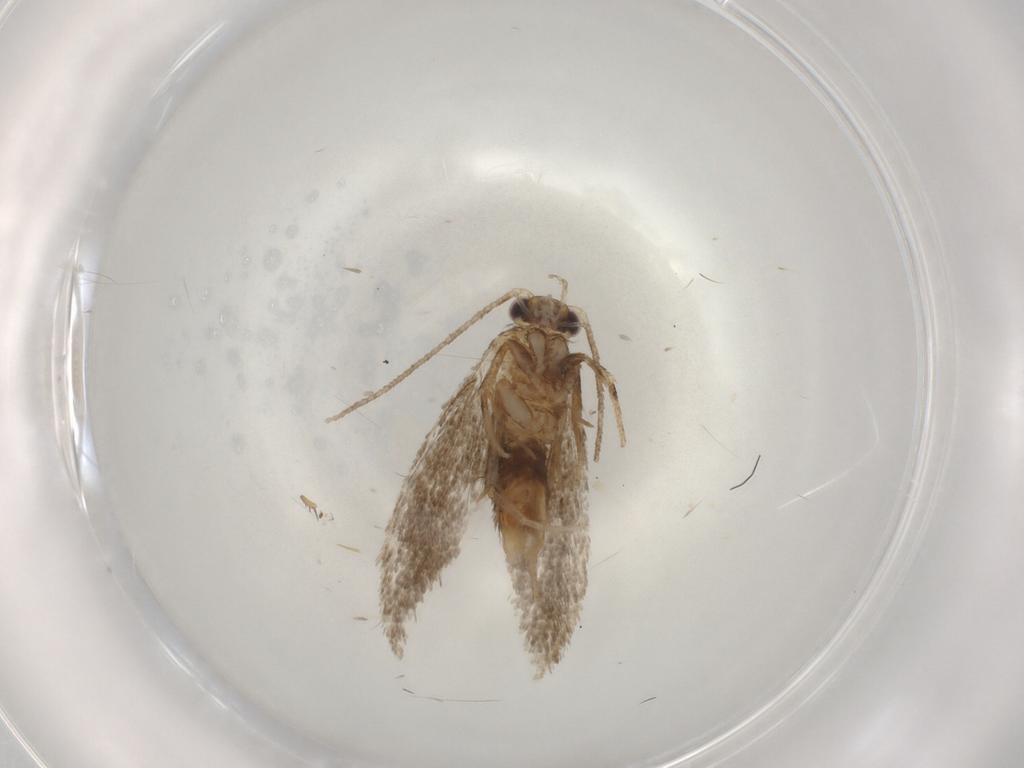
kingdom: Animalia
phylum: Arthropoda
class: Insecta
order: Lepidoptera
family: Tineidae
